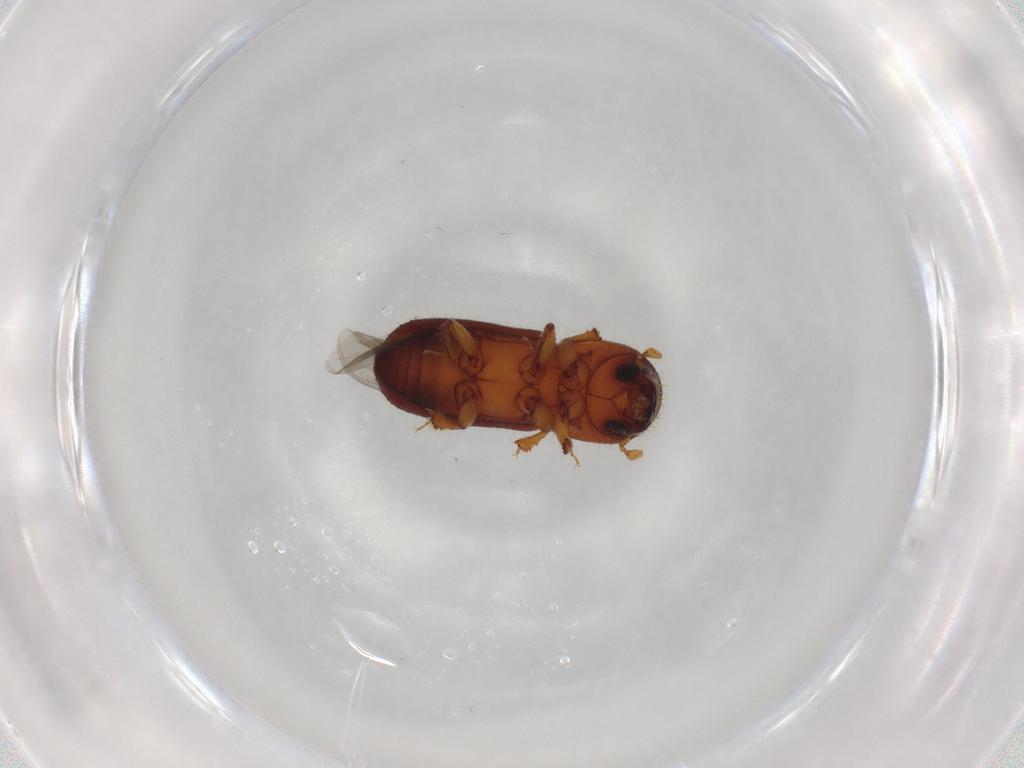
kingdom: Animalia
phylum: Arthropoda
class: Insecta
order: Coleoptera
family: Curculionidae
